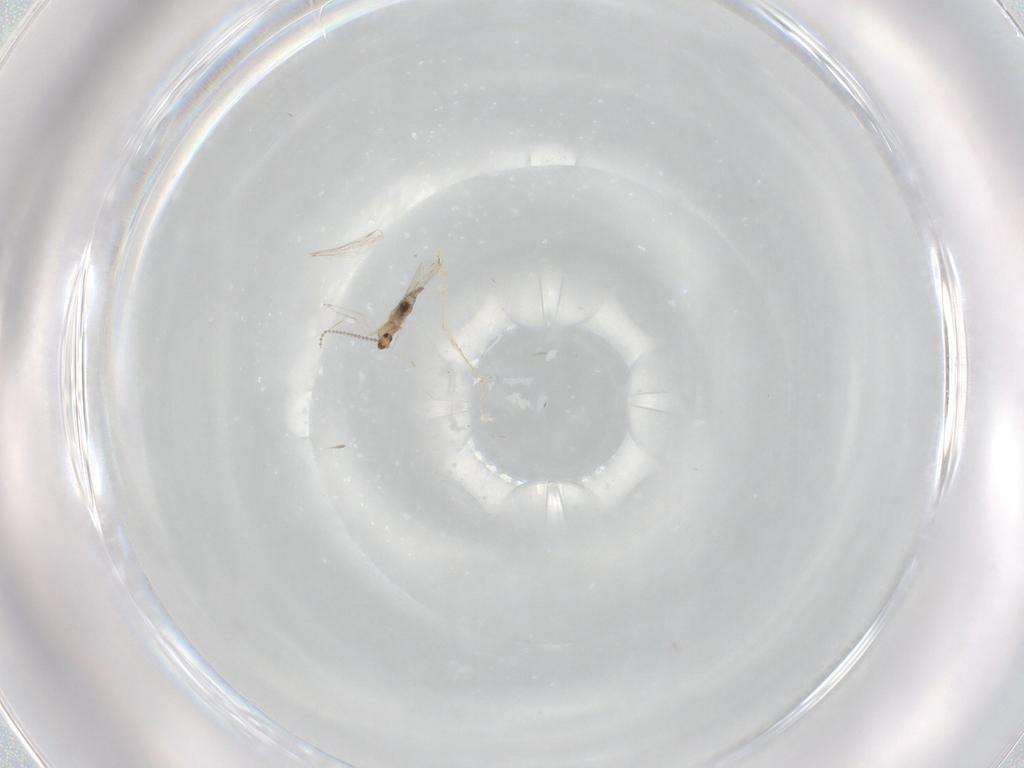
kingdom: Animalia
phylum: Arthropoda
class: Insecta
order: Diptera
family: Cecidomyiidae
